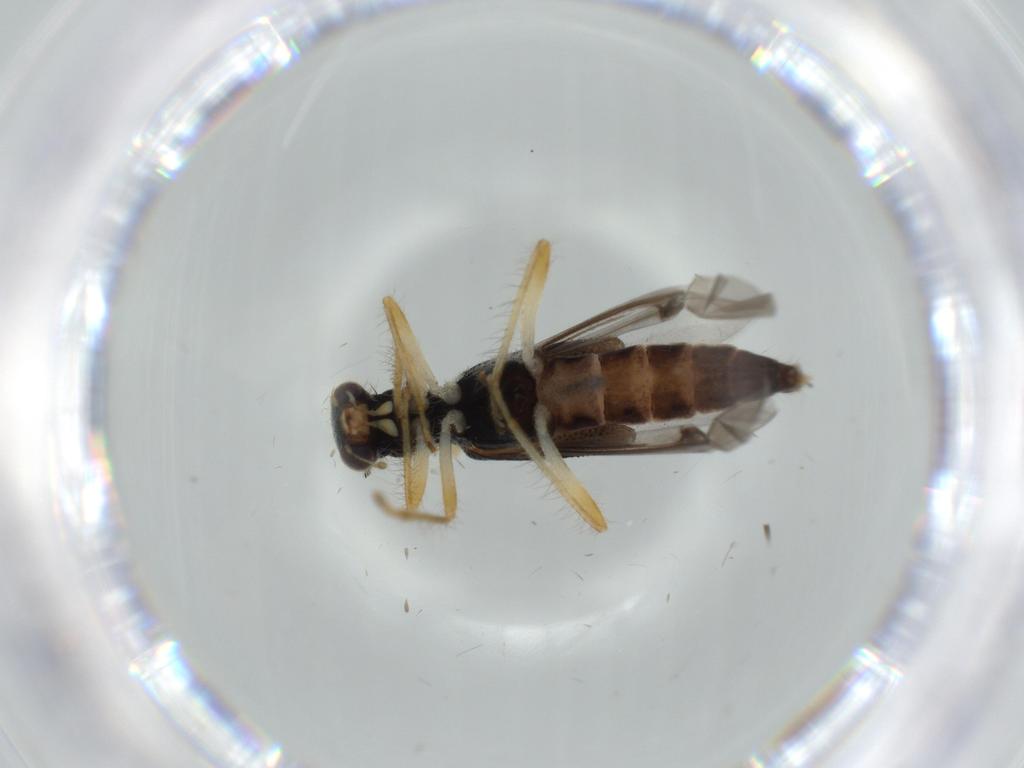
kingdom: Animalia
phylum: Arthropoda
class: Insecta
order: Coleoptera
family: Cleridae
